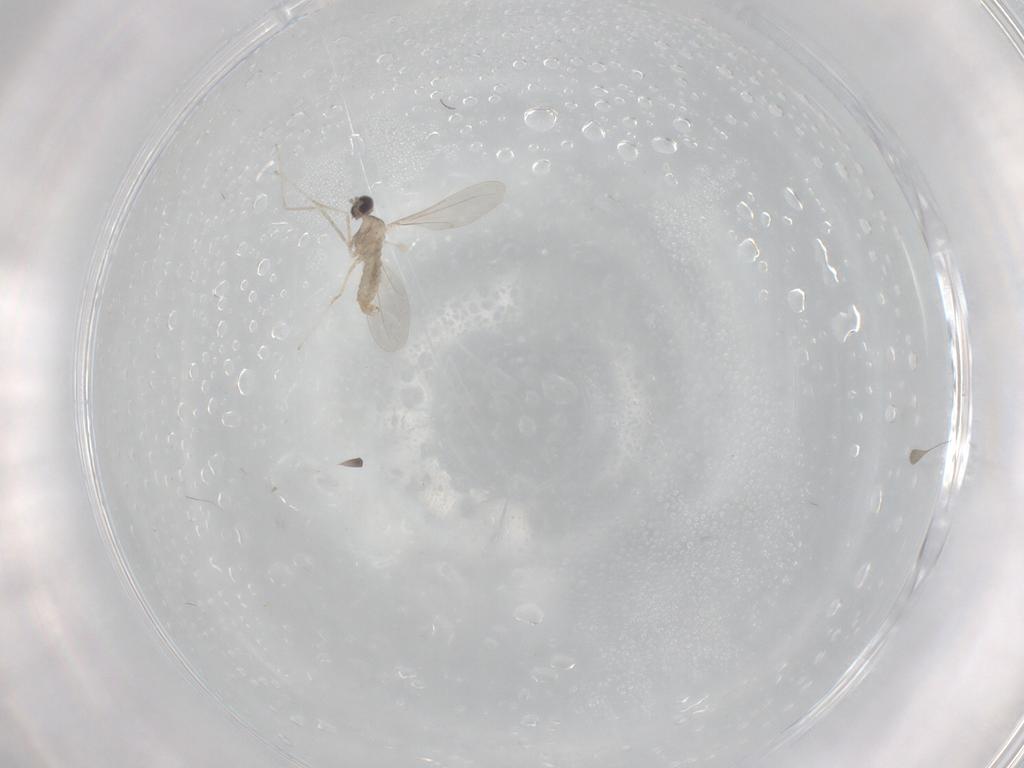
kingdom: Animalia
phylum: Arthropoda
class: Insecta
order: Diptera
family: Cecidomyiidae
